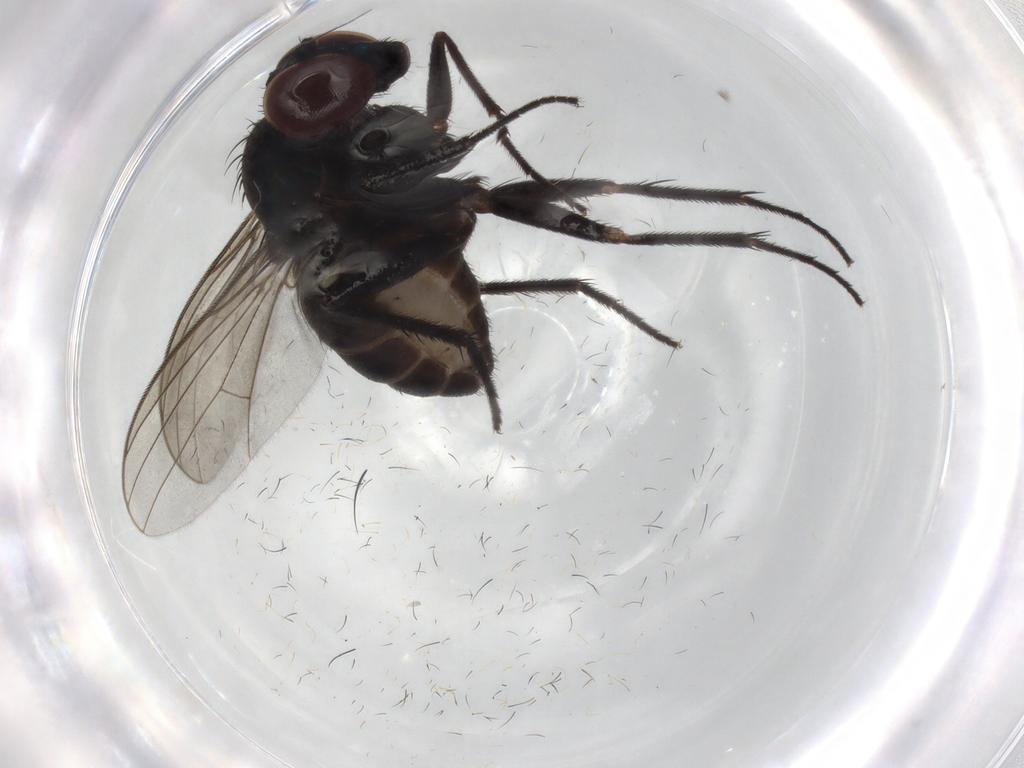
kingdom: Animalia
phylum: Arthropoda
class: Insecta
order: Diptera
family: Dolichopodidae
